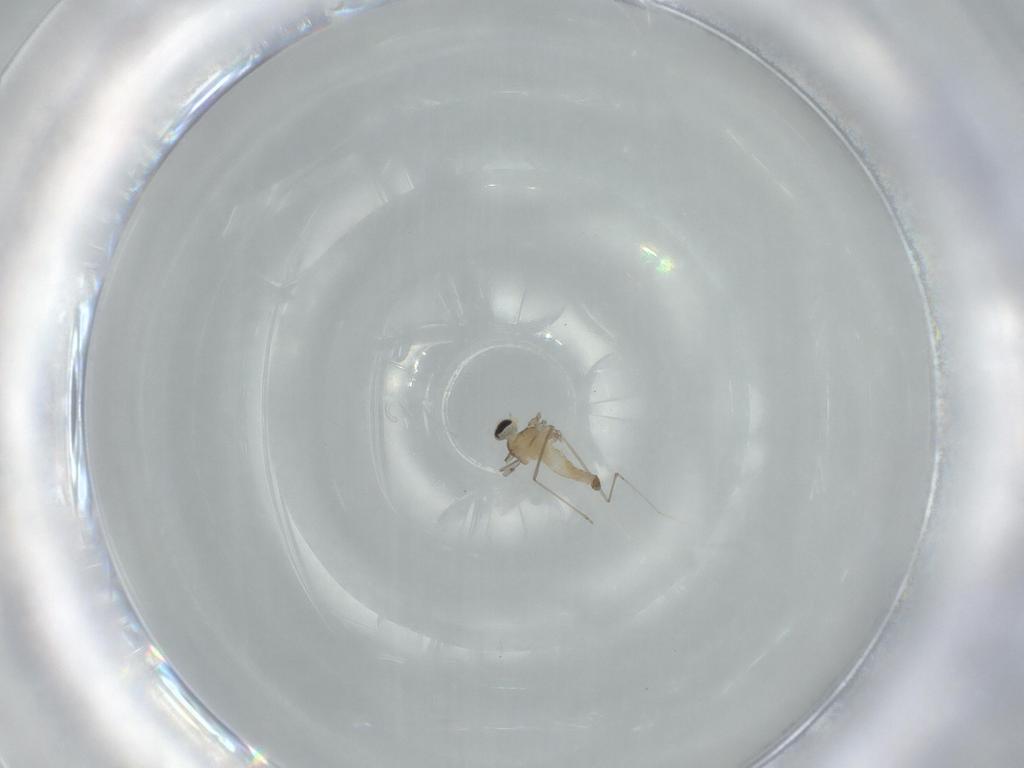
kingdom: Animalia
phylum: Arthropoda
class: Insecta
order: Diptera
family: Cecidomyiidae
